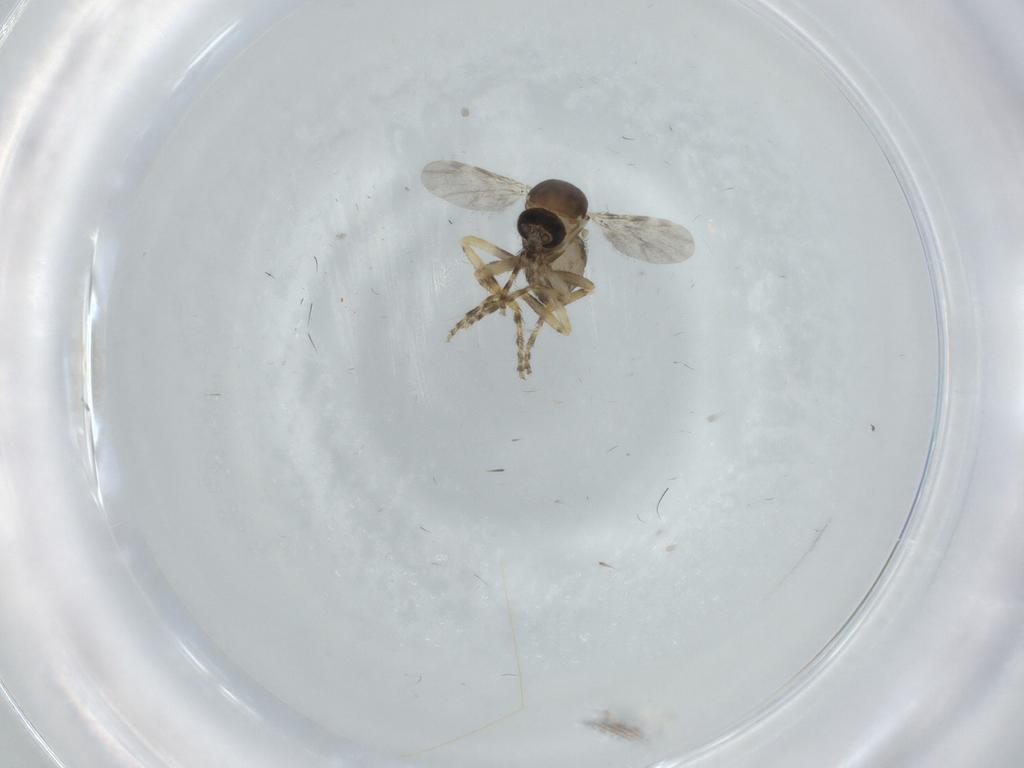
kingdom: Animalia
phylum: Arthropoda
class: Insecta
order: Diptera
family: Ceratopogonidae
